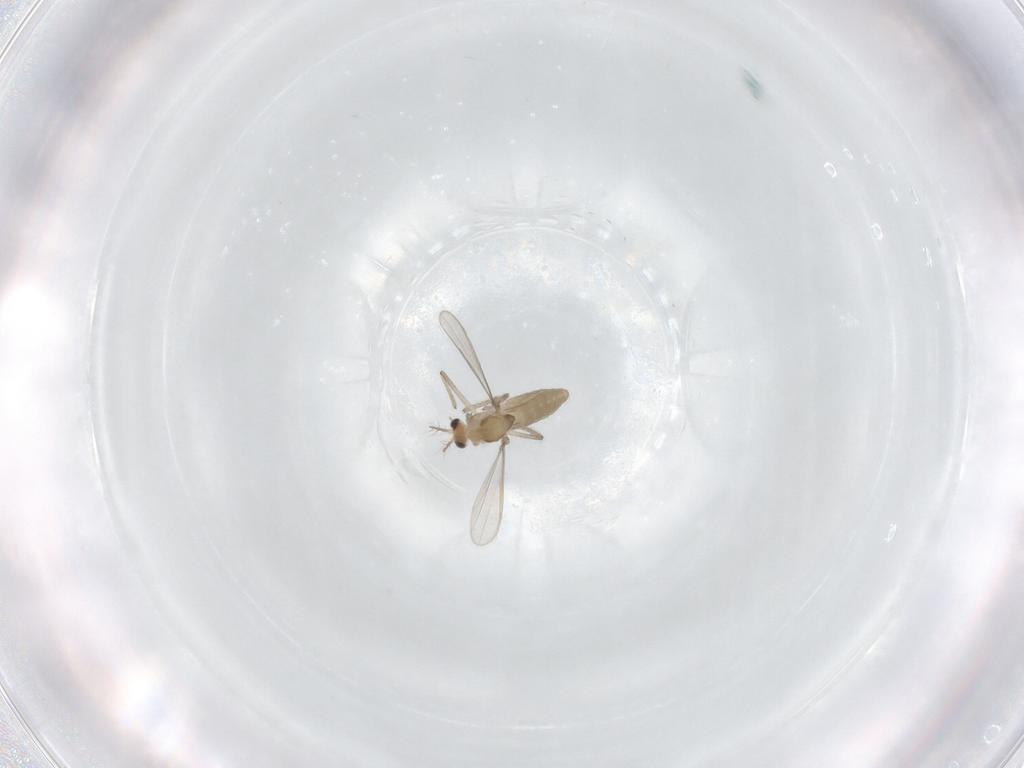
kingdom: Animalia
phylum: Arthropoda
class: Insecta
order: Diptera
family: Chironomidae
